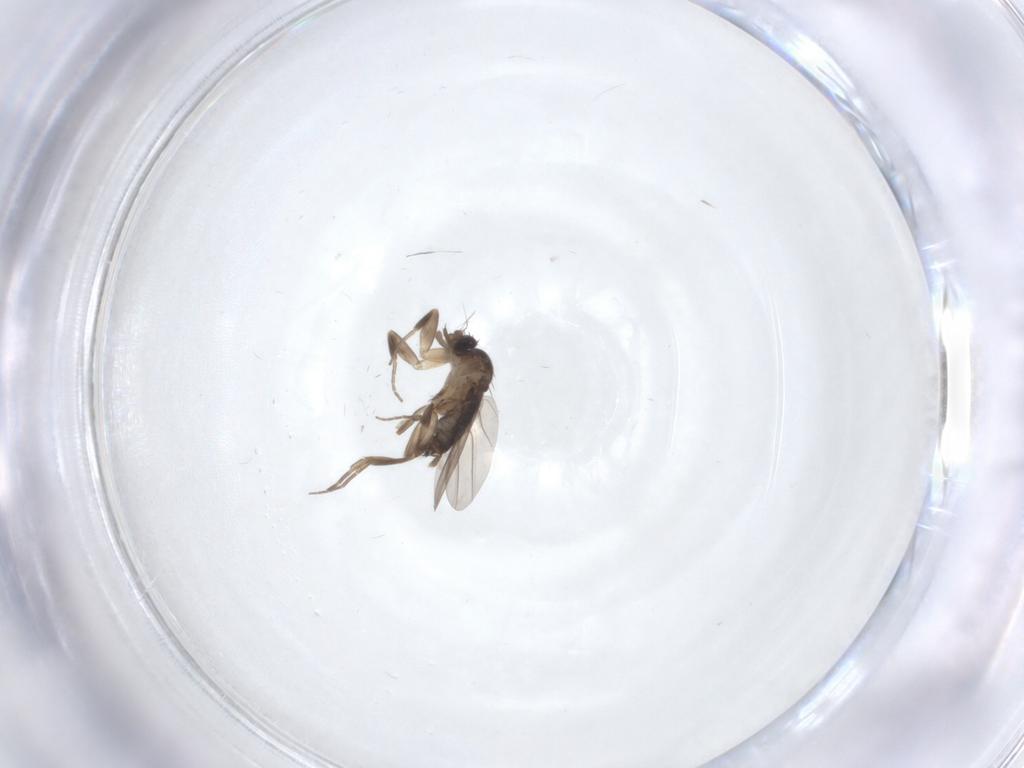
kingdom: Animalia
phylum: Arthropoda
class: Insecta
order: Diptera
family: Phoridae
